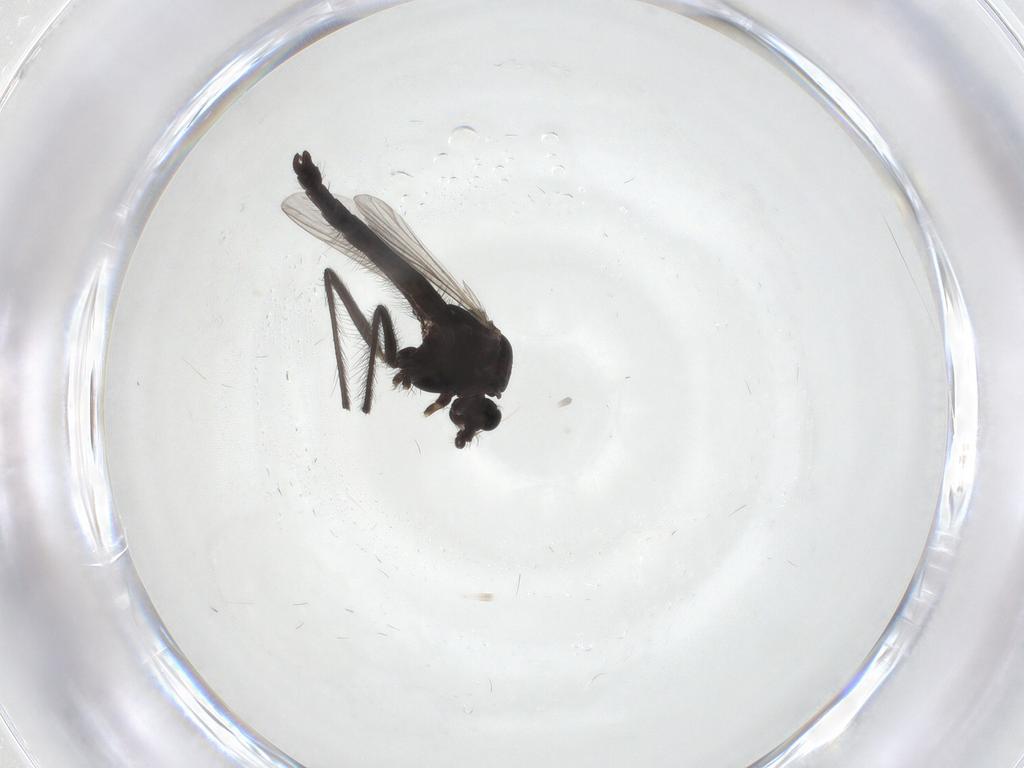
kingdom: Animalia
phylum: Arthropoda
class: Insecta
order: Diptera
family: Chironomidae
